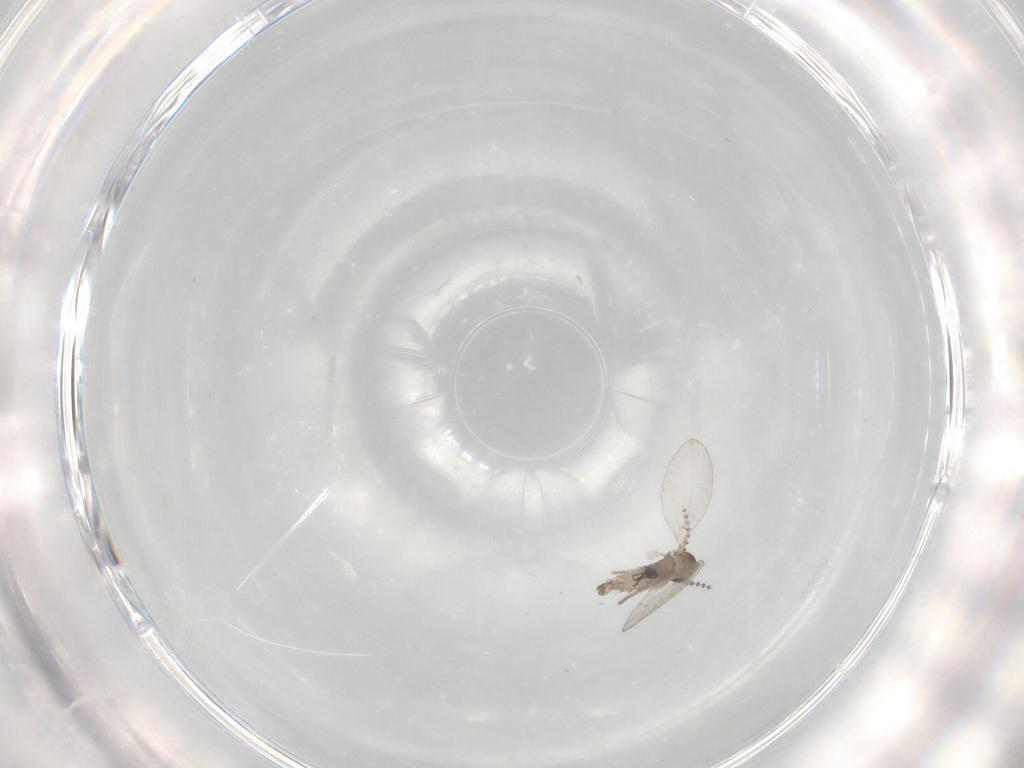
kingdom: Animalia
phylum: Arthropoda
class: Insecta
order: Diptera
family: Psychodidae
